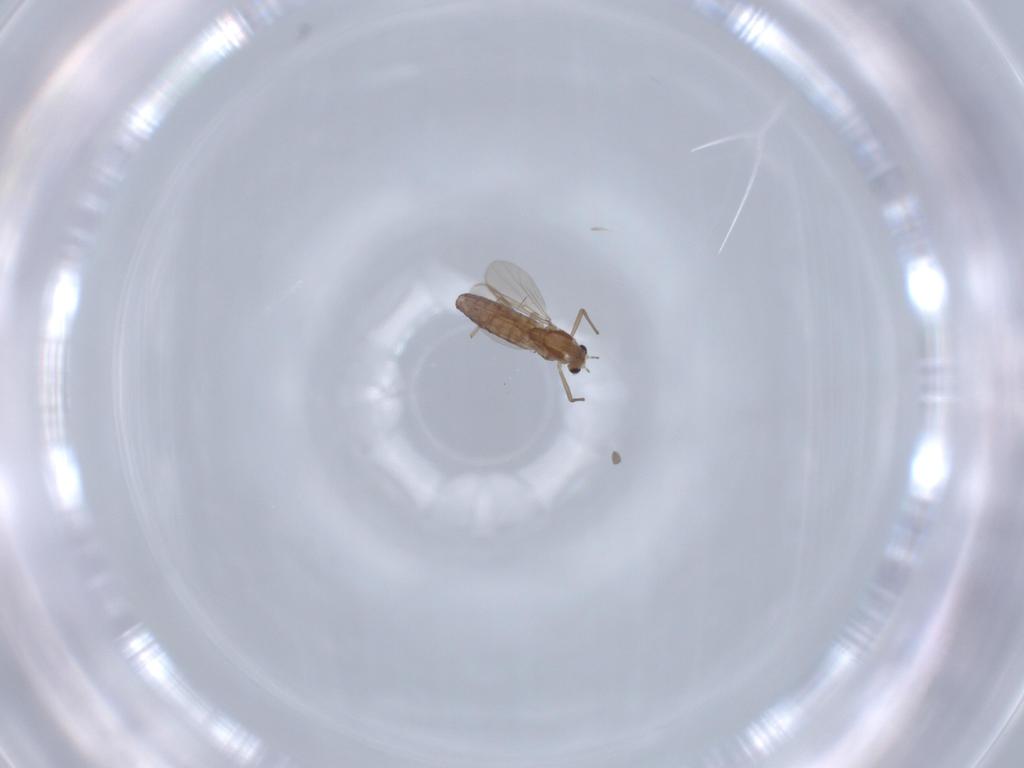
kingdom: Animalia
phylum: Arthropoda
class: Insecta
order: Diptera
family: Chironomidae
